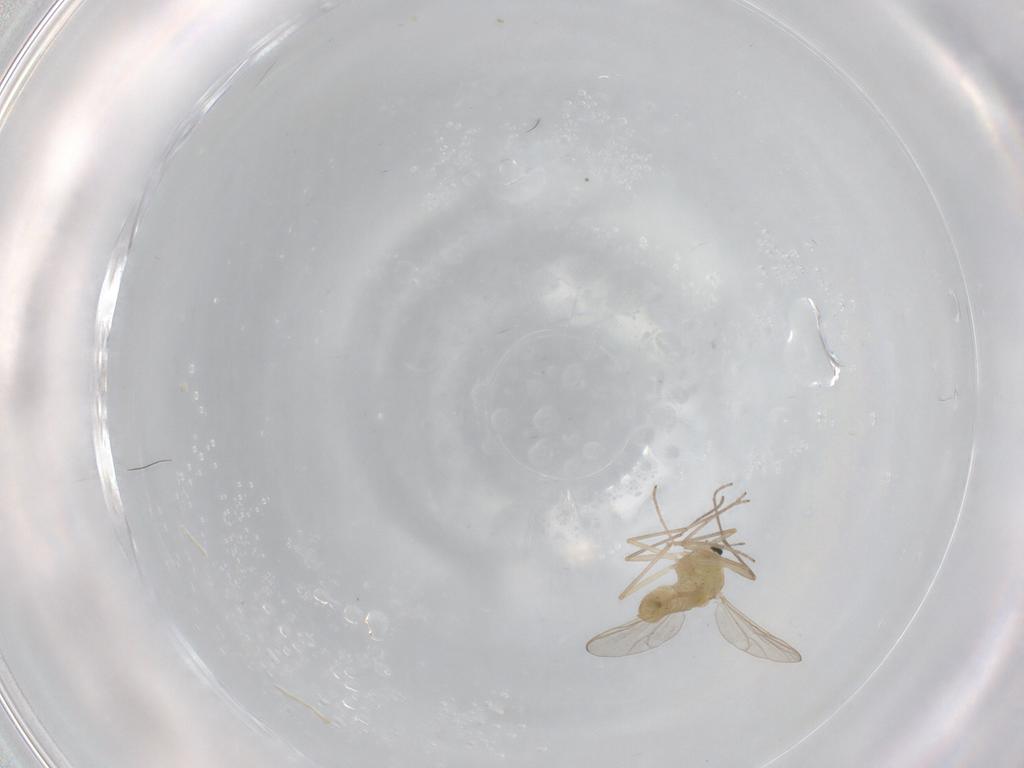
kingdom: Animalia
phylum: Arthropoda
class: Insecta
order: Diptera
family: Chironomidae
